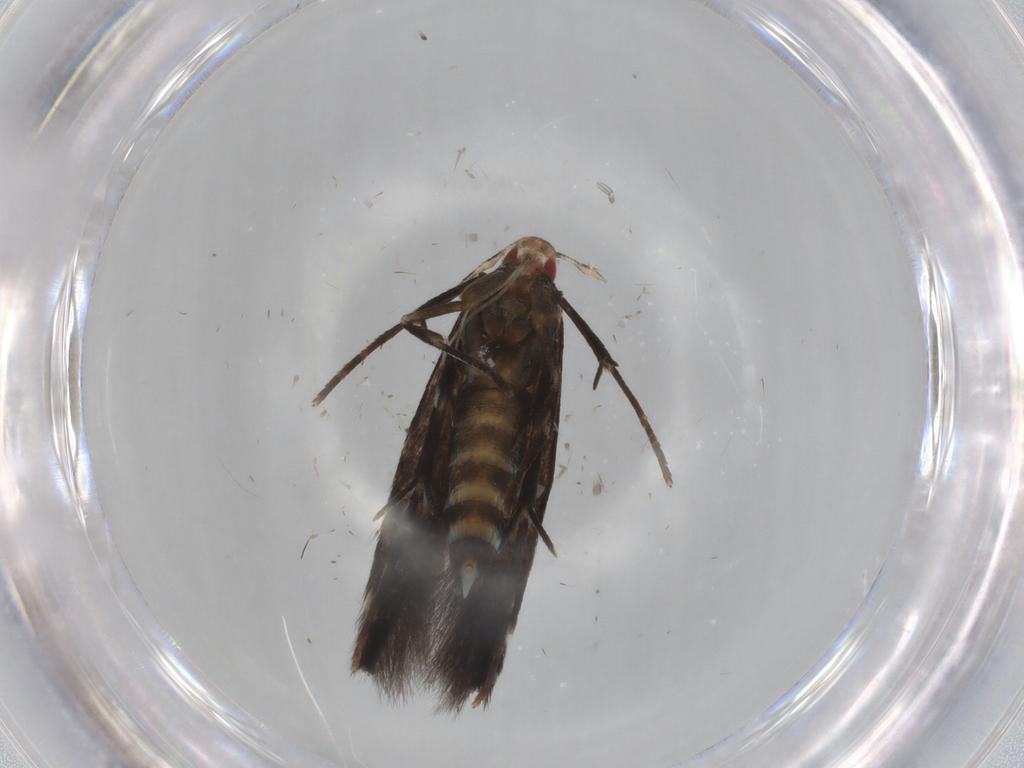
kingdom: Animalia
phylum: Arthropoda
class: Insecta
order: Lepidoptera
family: Cosmopterigidae
